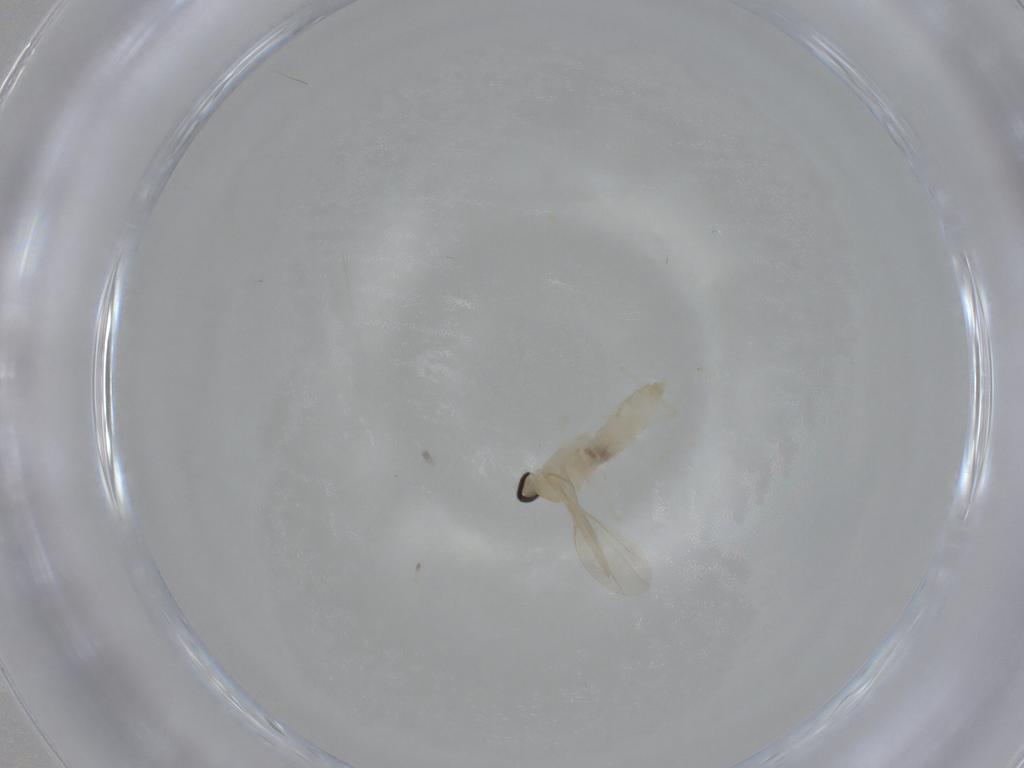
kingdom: Animalia
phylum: Arthropoda
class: Insecta
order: Diptera
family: Cecidomyiidae
